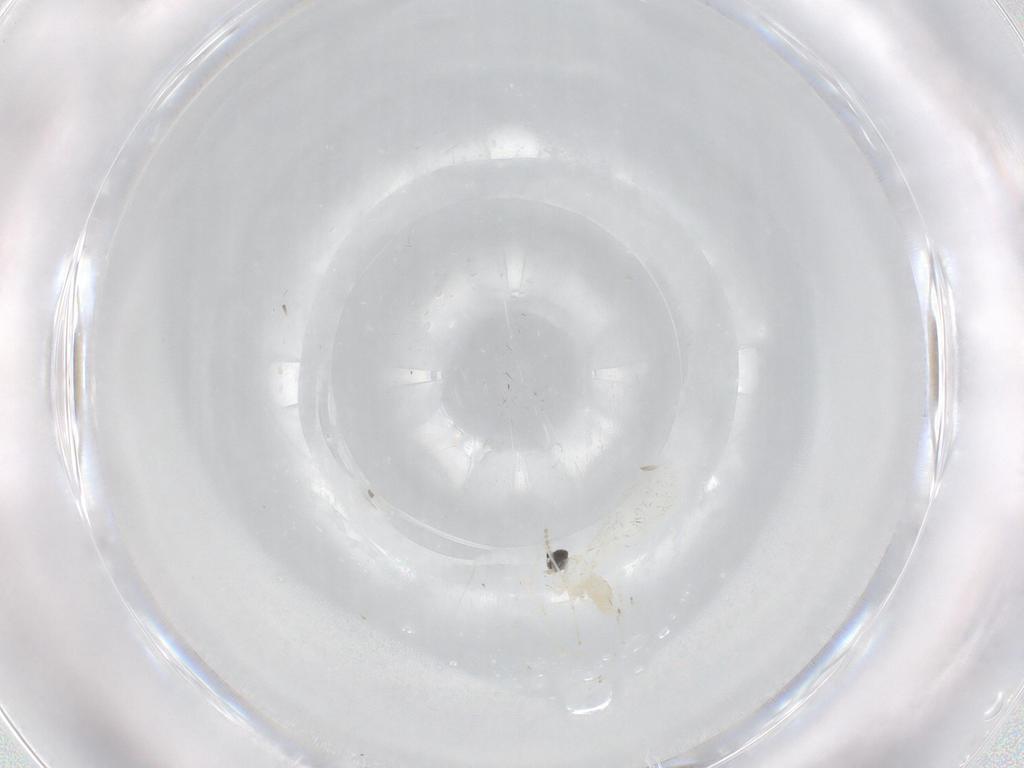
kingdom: Animalia
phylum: Arthropoda
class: Insecta
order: Diptera
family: Cecidomyiidae
